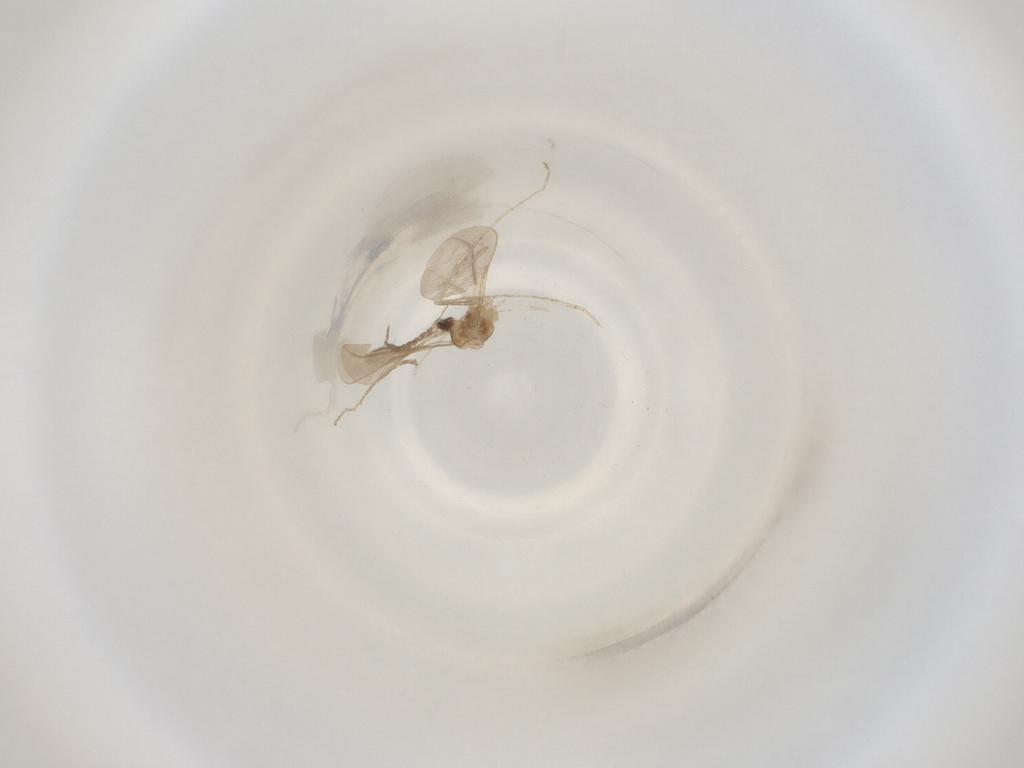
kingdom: Animalia
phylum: Arthropoda
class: Insecta
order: Diptera
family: Cecidomyiidae
